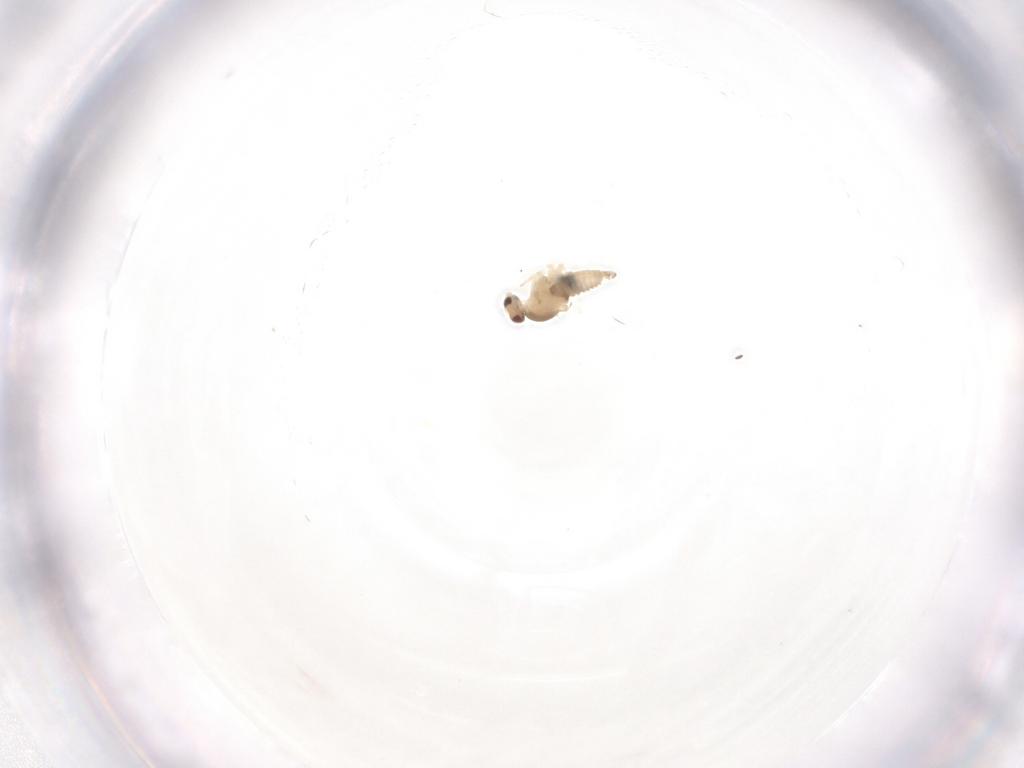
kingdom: Animalia
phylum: Arthropoda
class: Insecta
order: Diptera
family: Cecidomyiidae
